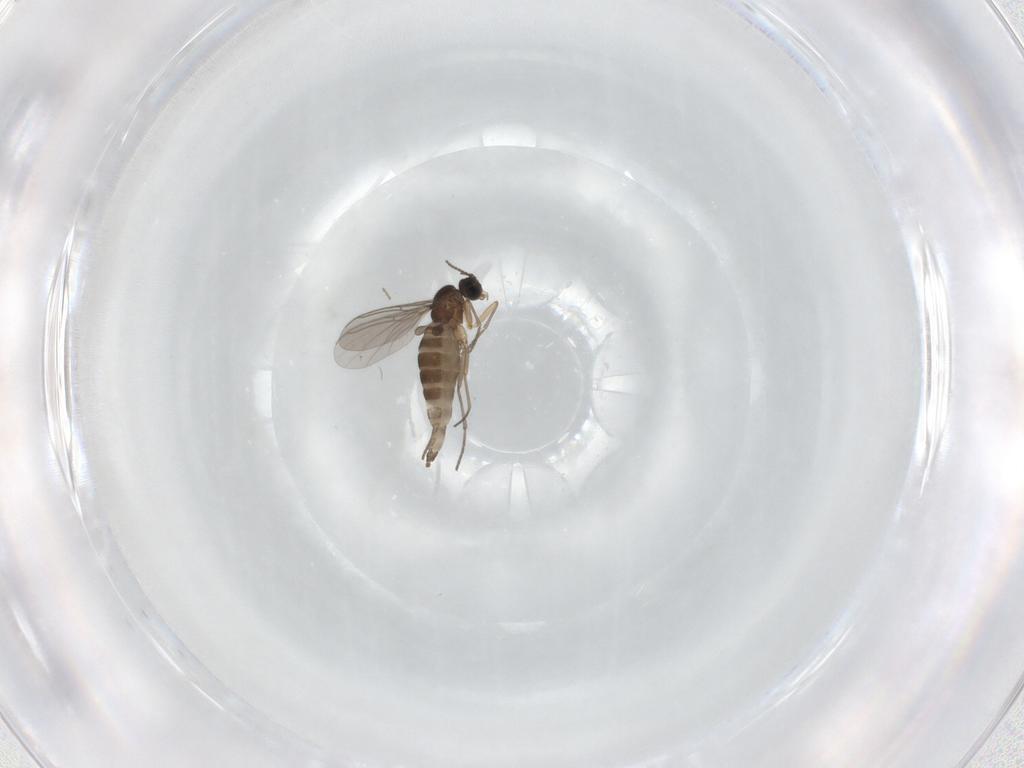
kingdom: Animalia
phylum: Arthropoda
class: Insecta
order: Diptera
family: Sciaridae
